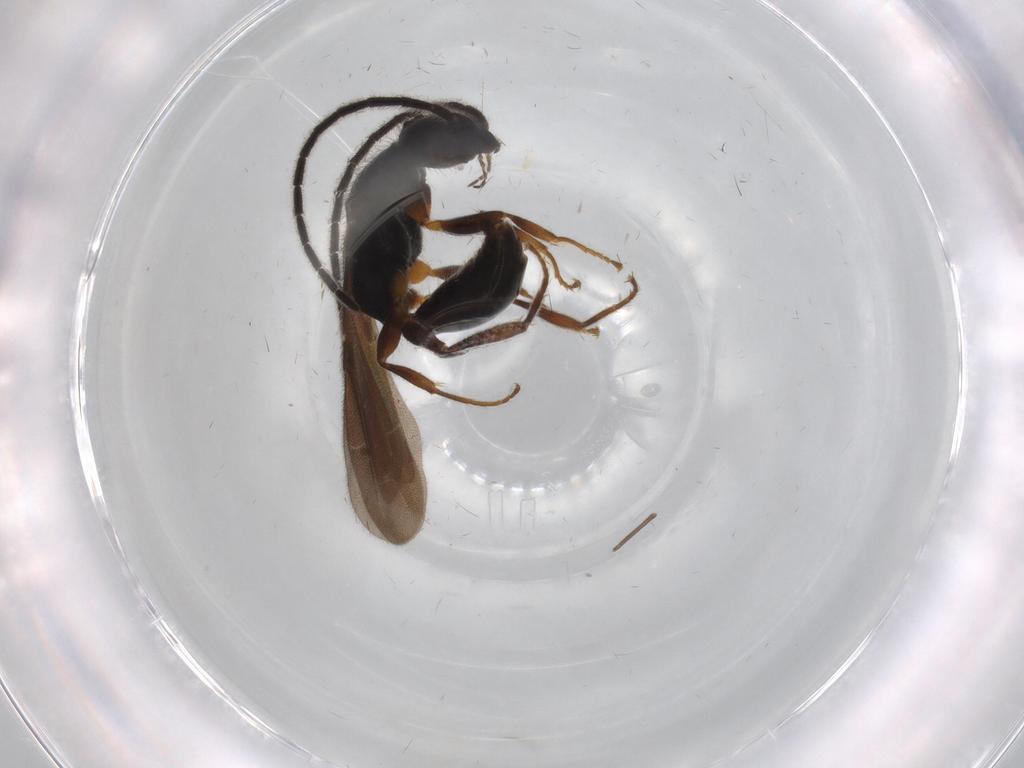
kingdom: Animalia
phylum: Arthropoda
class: Insecta
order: Hymenoptera
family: Bethylidae
